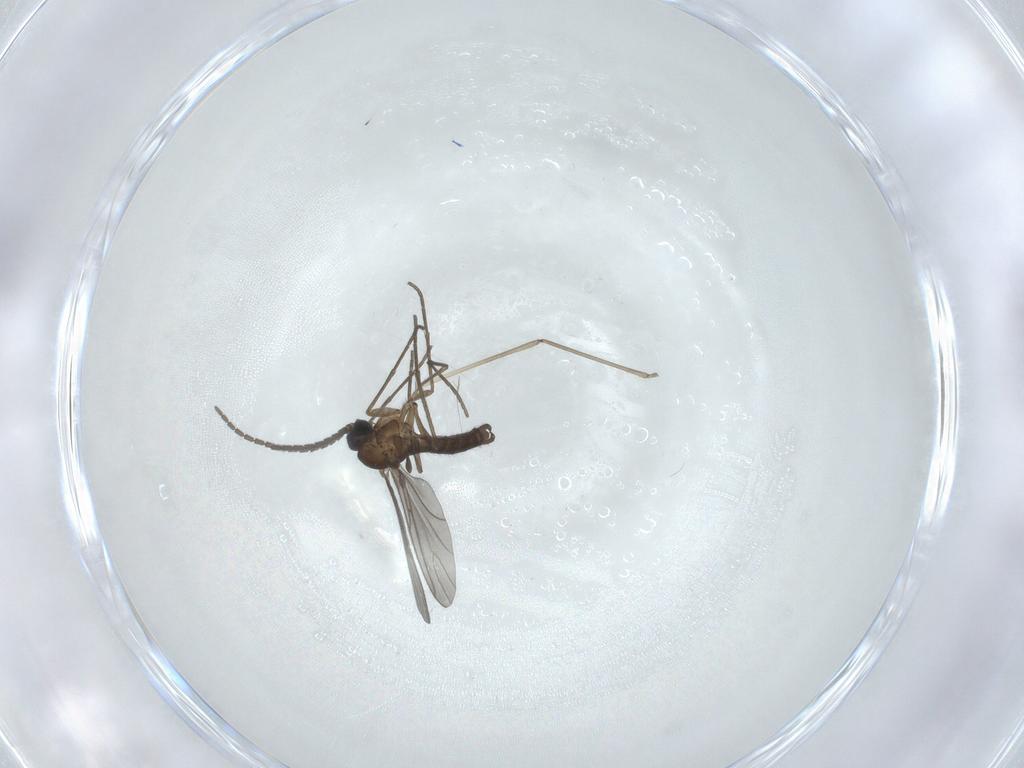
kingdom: Animalia
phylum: Arthropoda
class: Insecta
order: Diptera
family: Sciaridae
